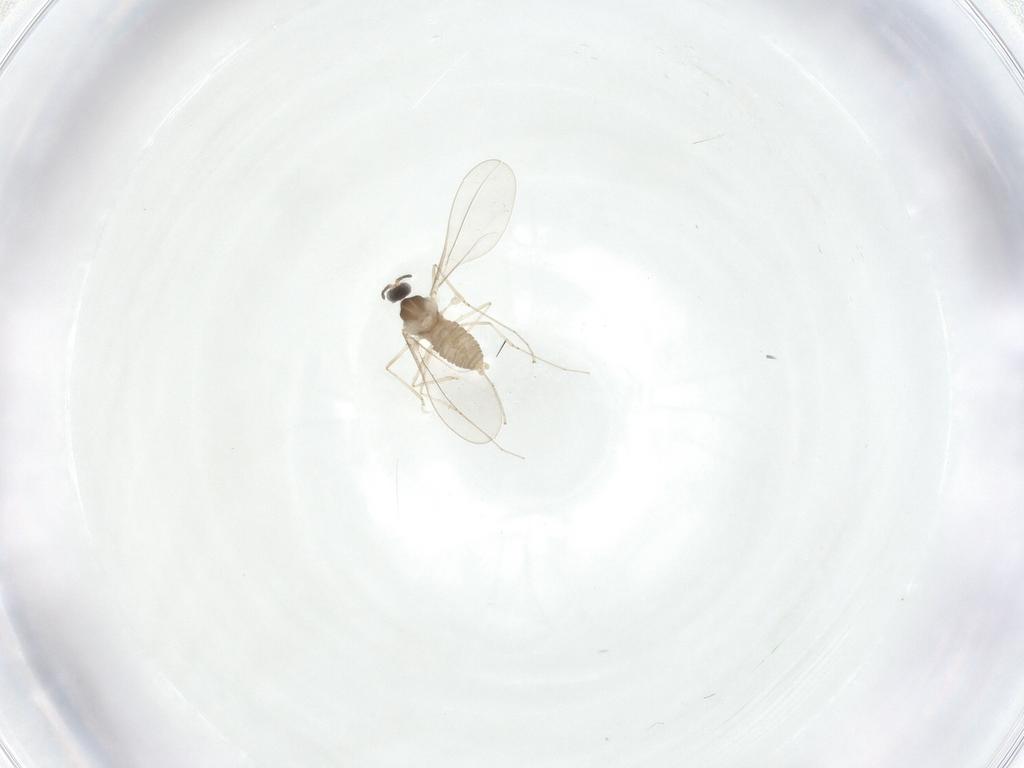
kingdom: Animalia
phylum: Arthropoda
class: Insecta
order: Diptera
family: Cecidomyiidae
